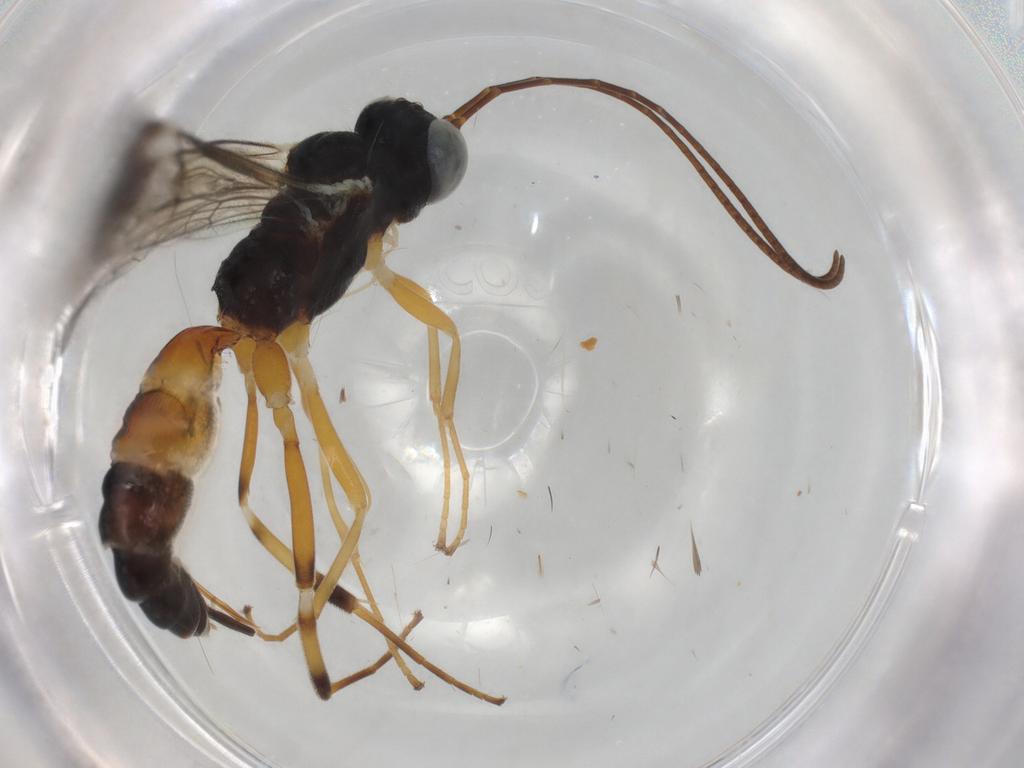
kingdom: Animalia
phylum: Arthropoda
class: Insecta
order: Hymenoptera
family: Ichneumonidae
